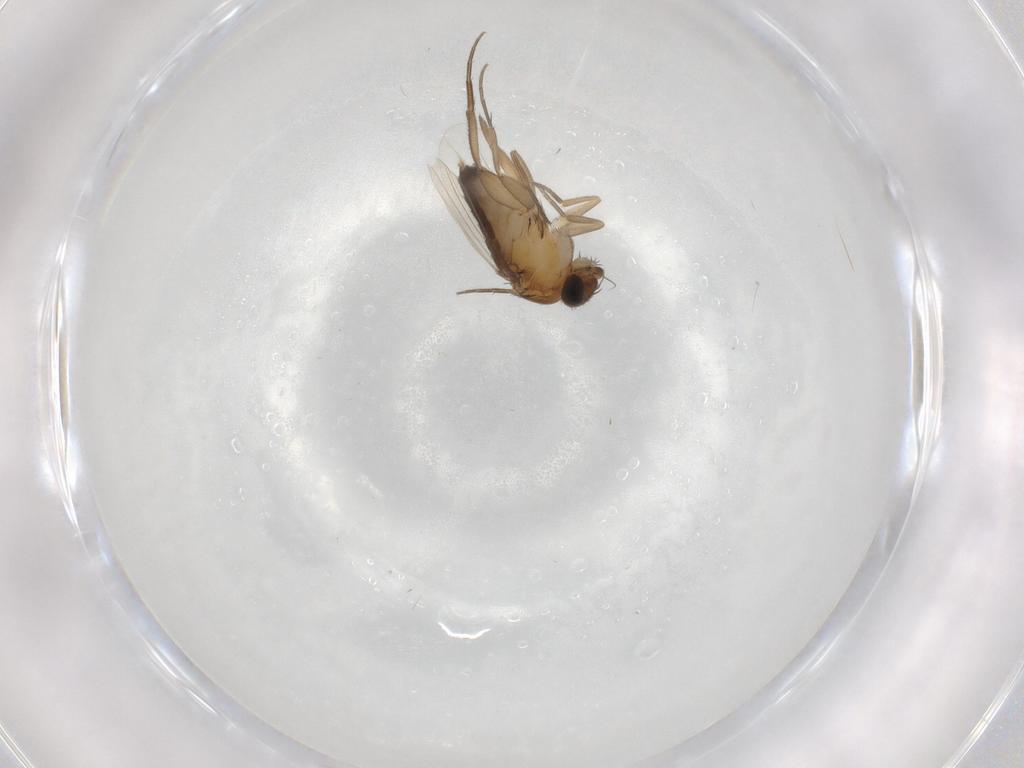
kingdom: Animalia
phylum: Arthropoda
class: Insecta
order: Diptera
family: Phoridae
